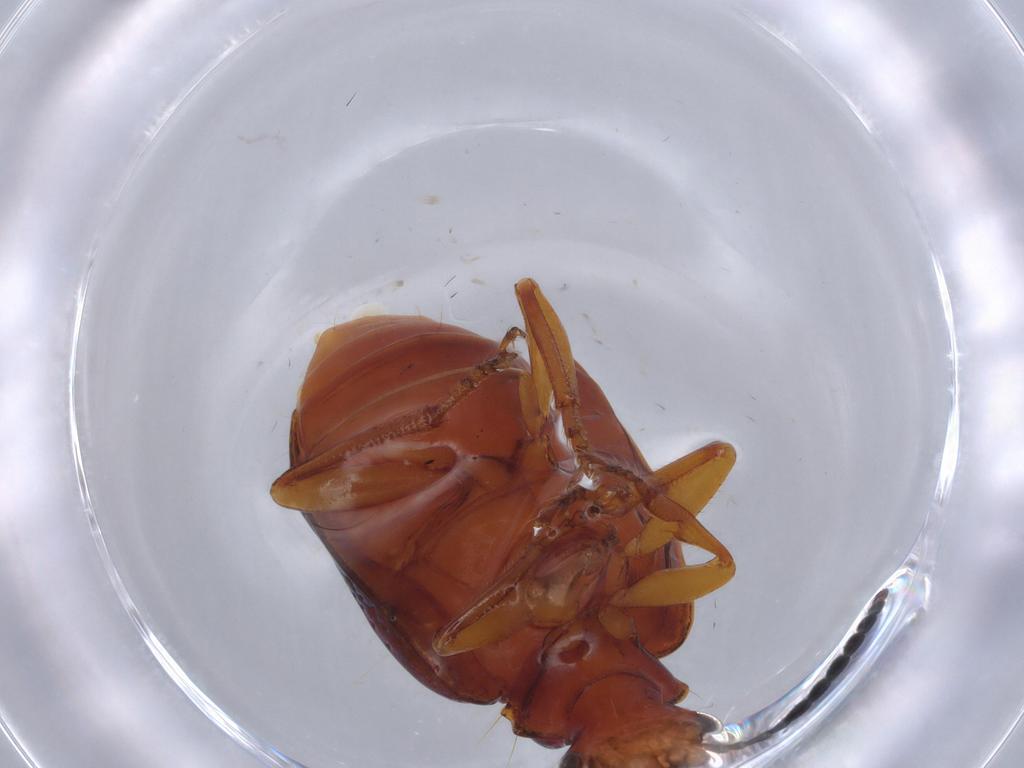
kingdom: Animalia
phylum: Arthropoda
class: Insecta
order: Coleoptera
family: Carabidae
